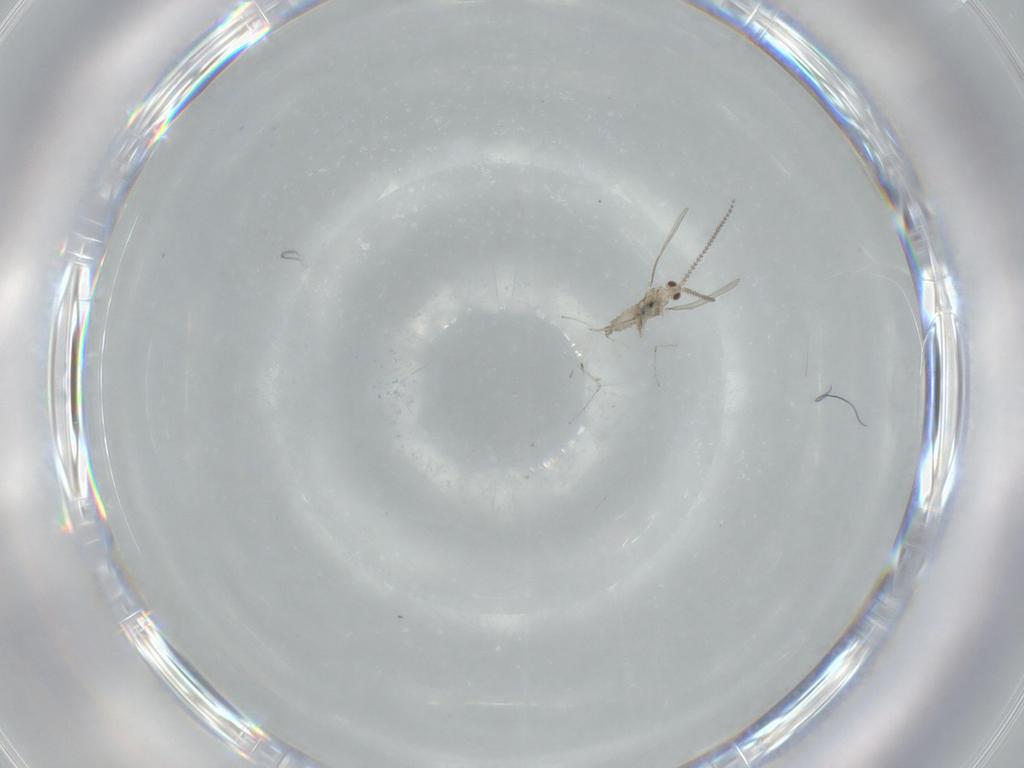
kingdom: Animalia
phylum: Arthropoda
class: Insecta
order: Diptera
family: Cecidomyiidae
